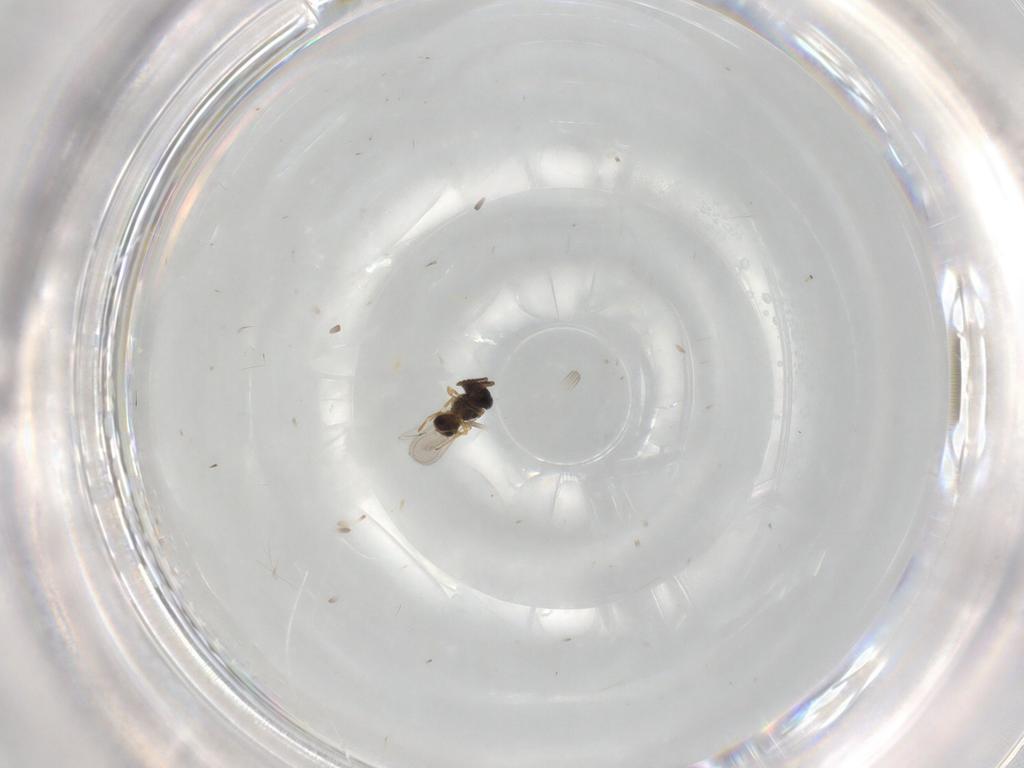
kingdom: Animalia
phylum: Arthropoda
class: Insecta
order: Hymenoptera
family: Scelionidae
